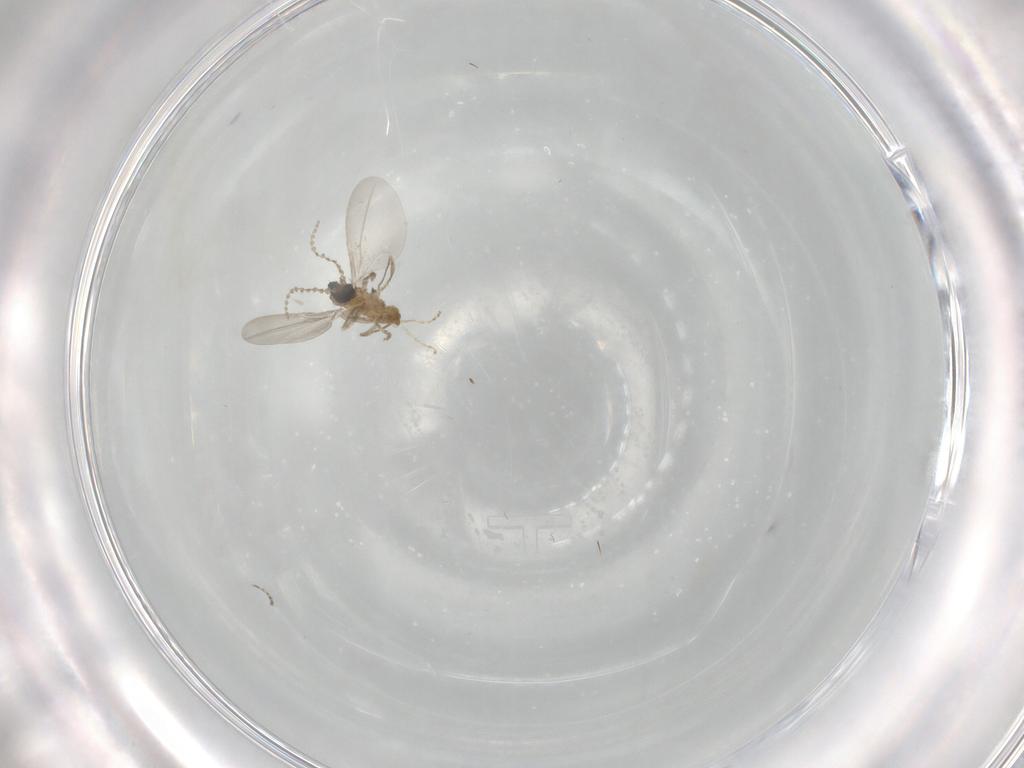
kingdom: Animalia
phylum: Arthropoda
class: Insecta
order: Diptera
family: Cecidomyiidae
